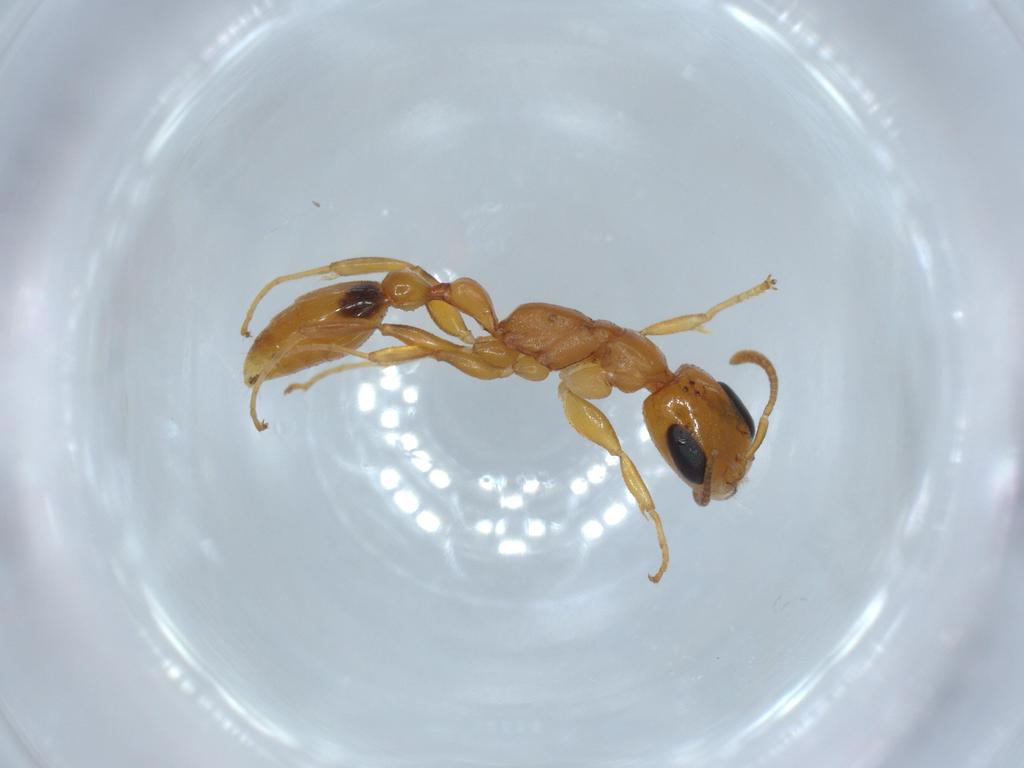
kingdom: Animalia
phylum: Arthropoda
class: Insecta
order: Hymenoptera
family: Formicidae
